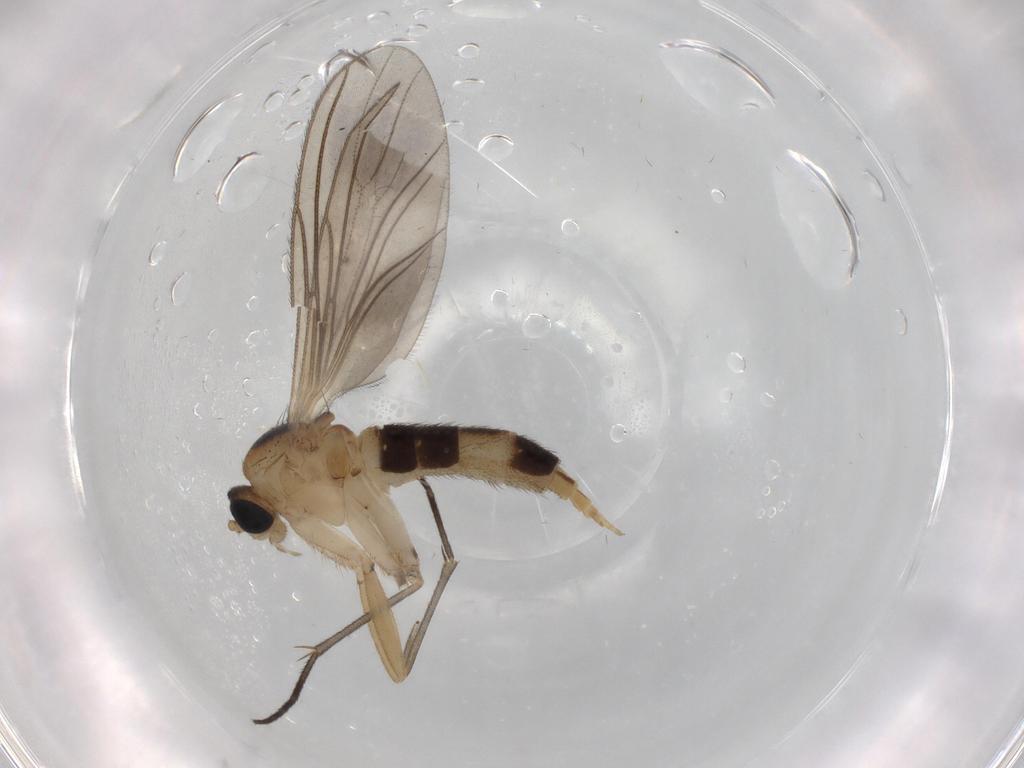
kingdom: Animalia
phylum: Arthropoda
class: Insecta
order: Diptera
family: Sciaridae
